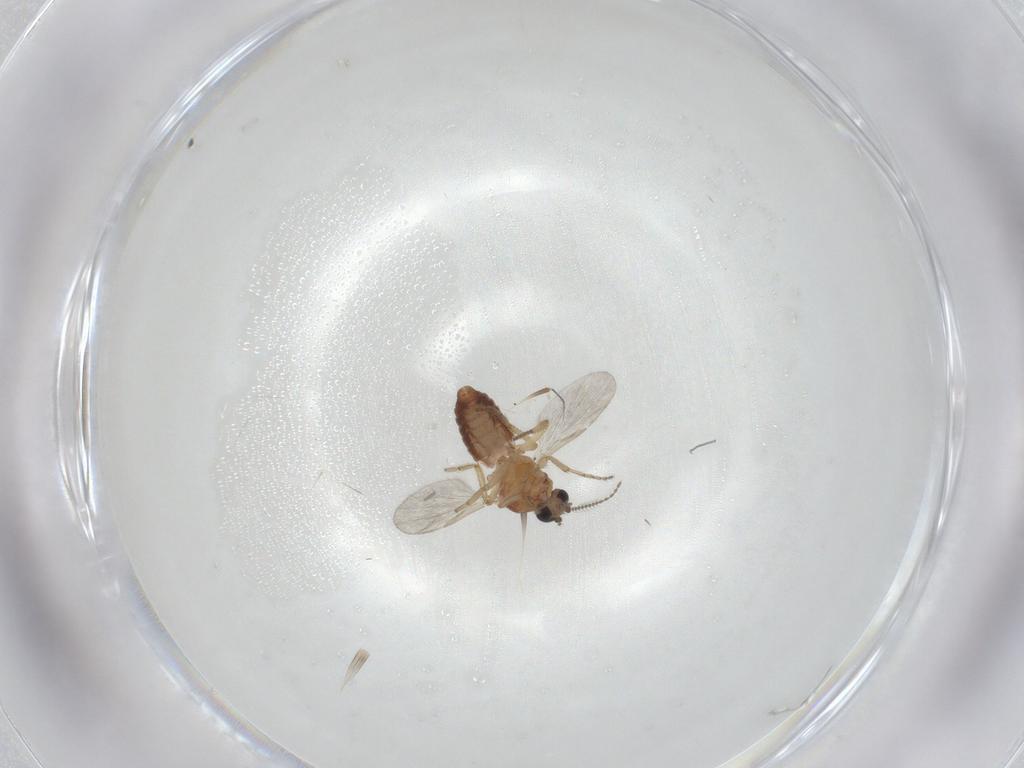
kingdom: Animalia
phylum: Arthropoda
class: Insecta
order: Diptera
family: Ceratopogonidae
